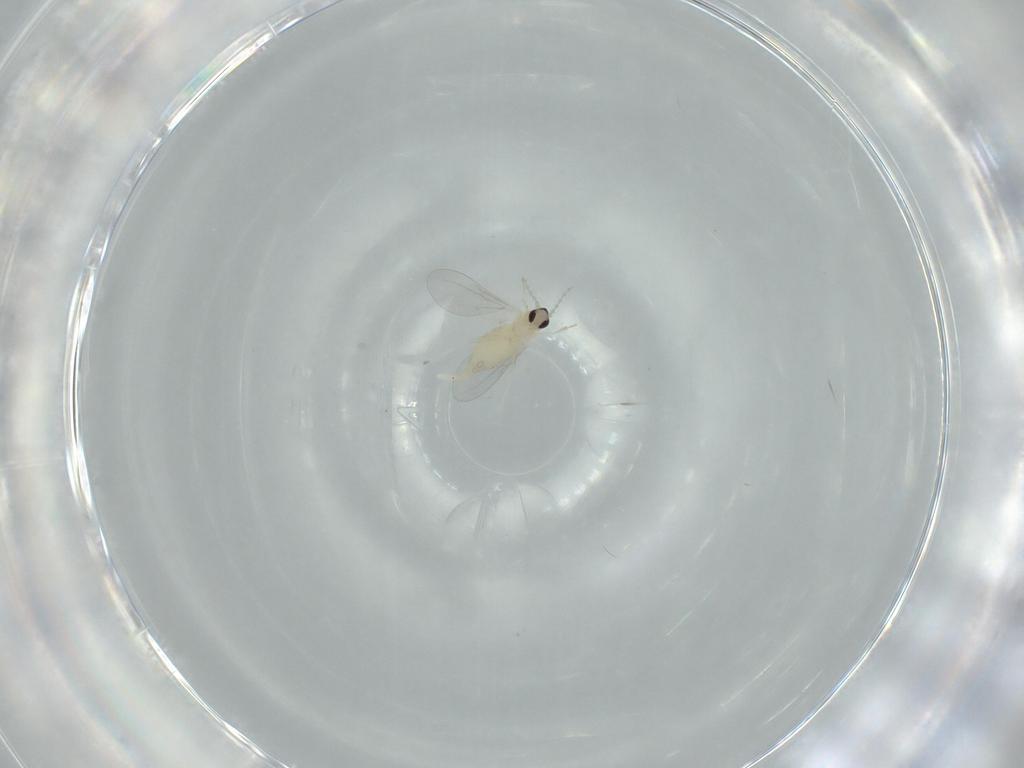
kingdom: Animalia
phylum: Arthropoda
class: Insecta
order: Diptera
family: Cecidomyiidae
